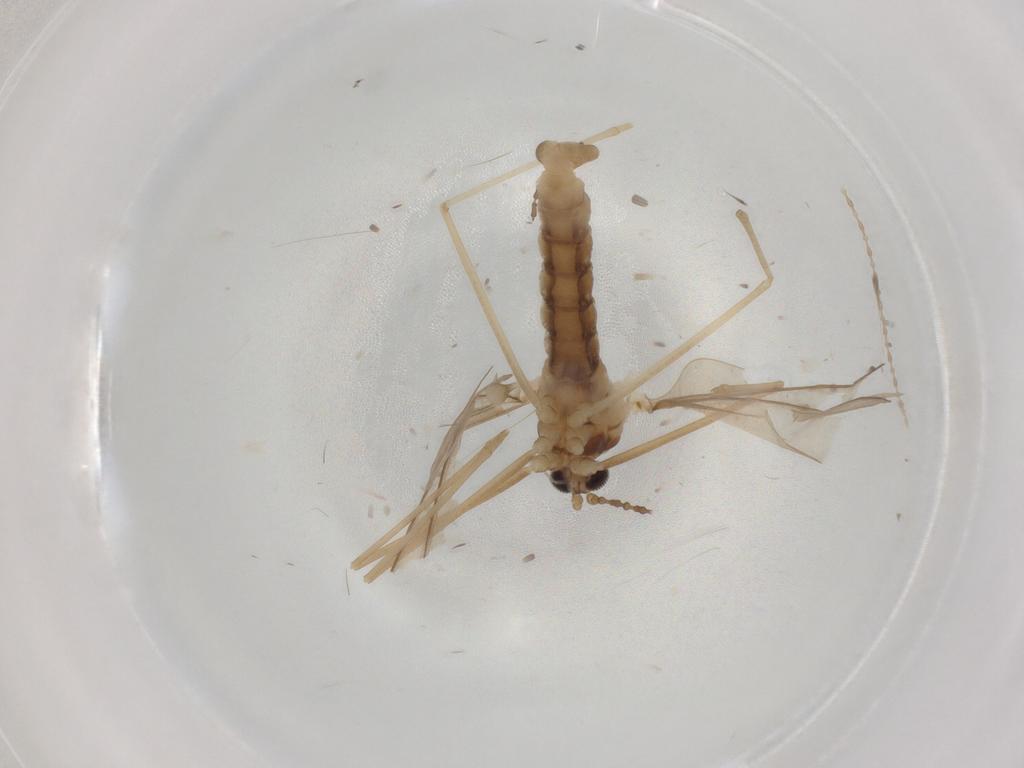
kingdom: Animalia
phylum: Arthropoda
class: Insecta
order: Diptera
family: Cecidomyiidae
